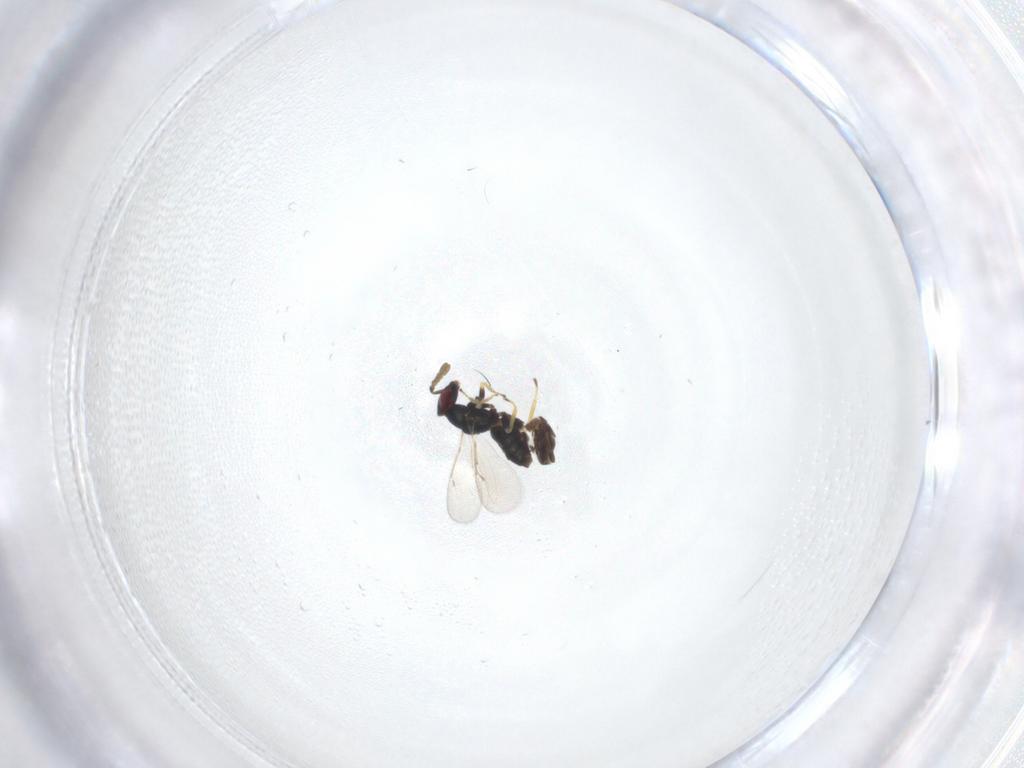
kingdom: Animalia
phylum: Arthropoda
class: Insecta
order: Hymenoptera
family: Eulophidae
